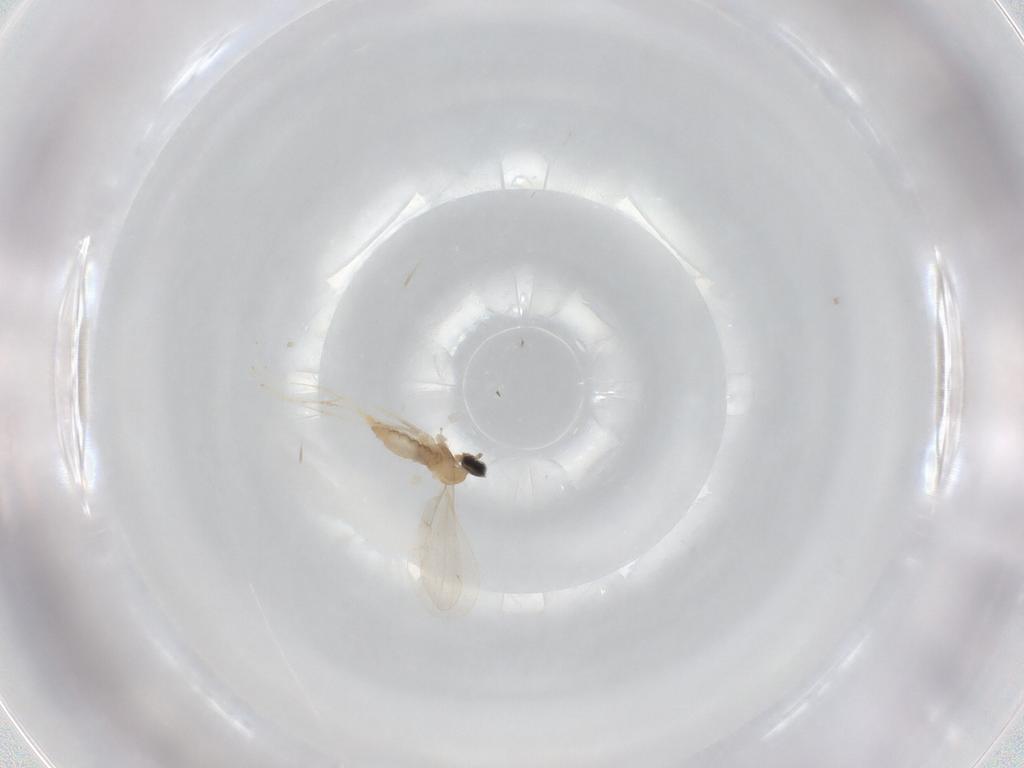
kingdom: Animalia
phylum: Arthropoda
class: Insecta
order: Diptera
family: Cecidomyiidae
